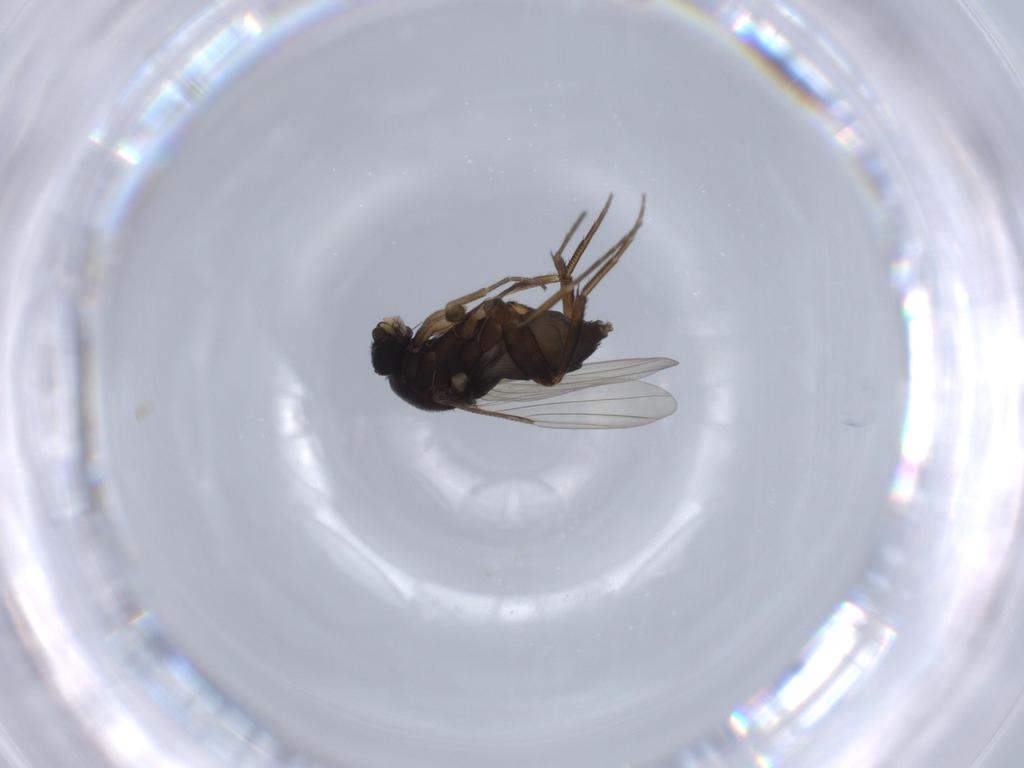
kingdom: Animalia
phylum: Arthropoda
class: Insecta
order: Diptera
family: Phoridae
